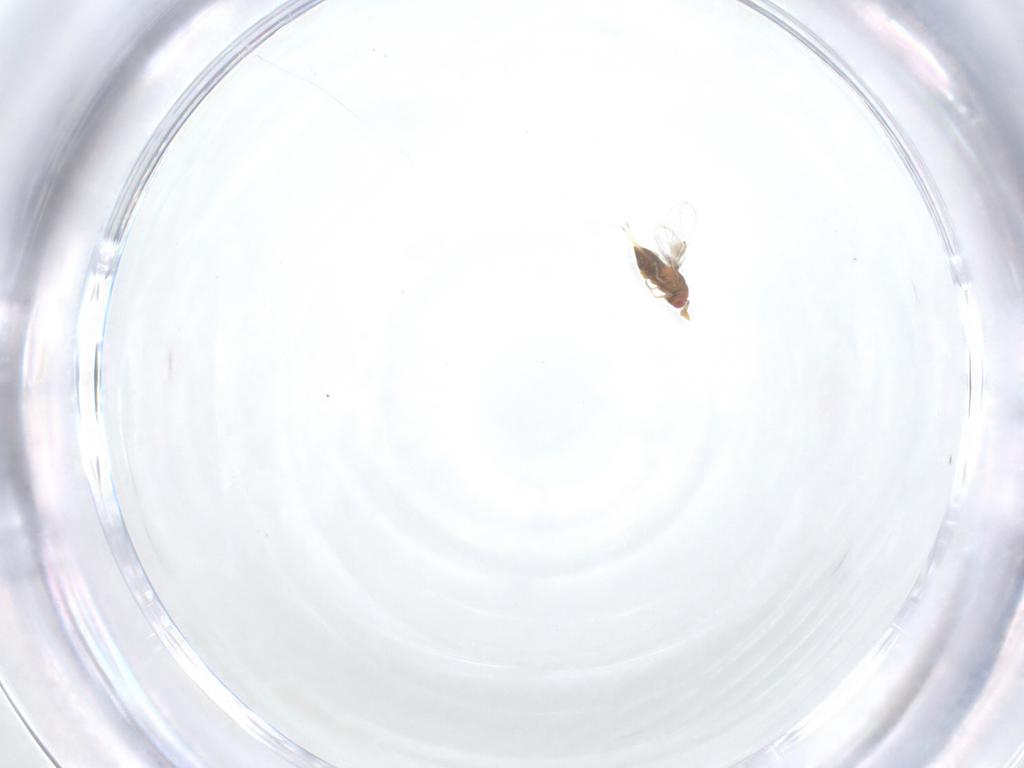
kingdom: Animalia
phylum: Arthropoda
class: Insecta
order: Hymenoptera
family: Trichogrammatidae
